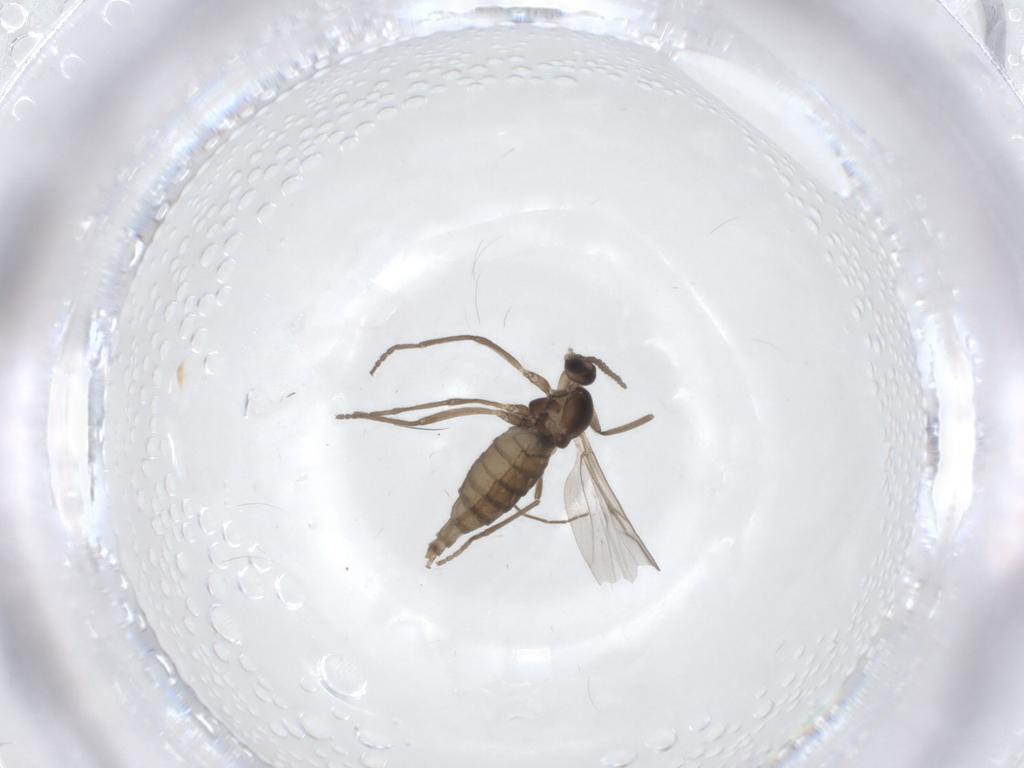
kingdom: Animalia
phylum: Arthropoda
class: Insecta
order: Diptera
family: Cecidomyiidae
